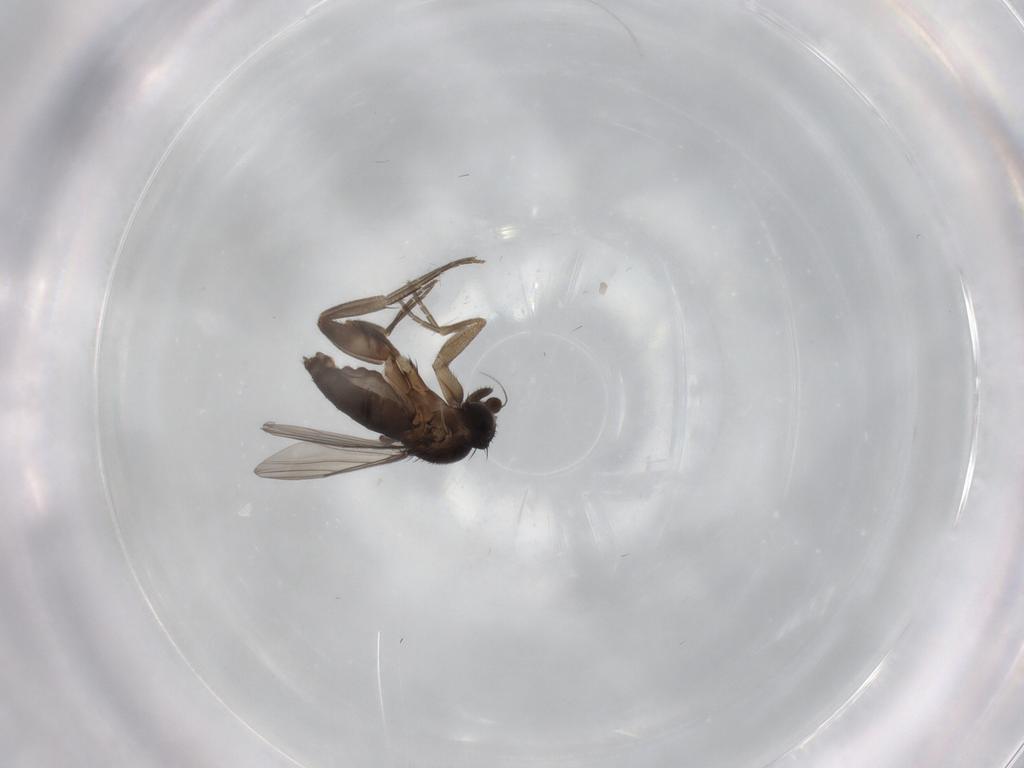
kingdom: Animalia
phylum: Arthropoda
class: Insecta
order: Diptera
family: Phoridae
